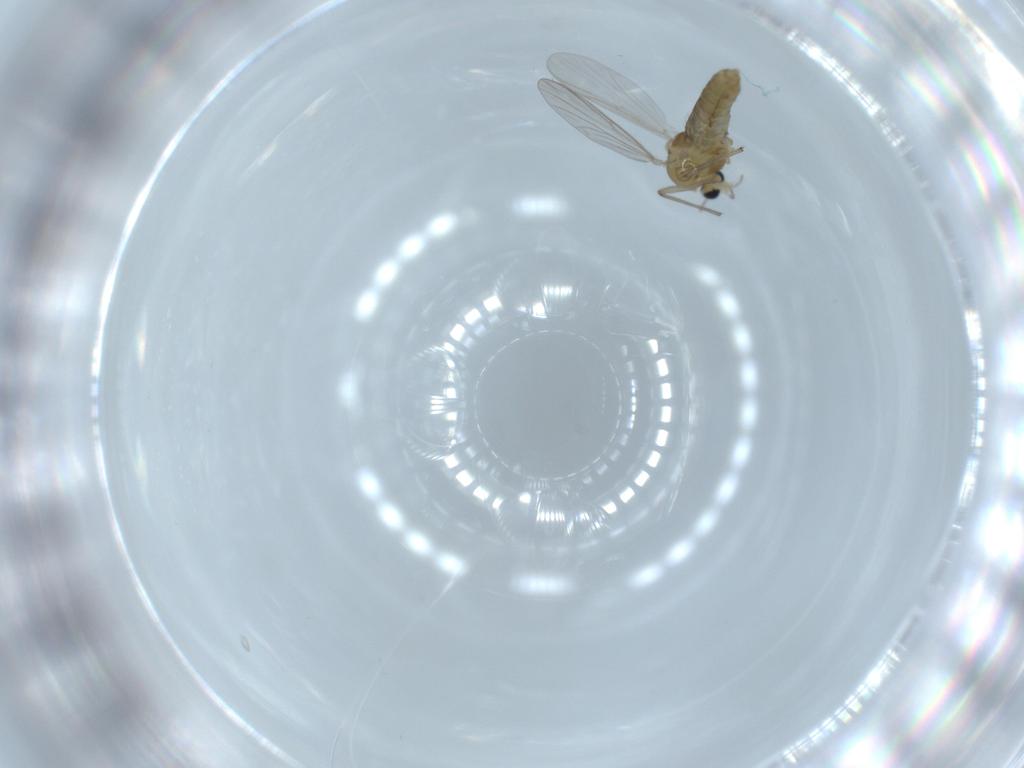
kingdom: Animalia
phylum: Arthropoda
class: Insecta
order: Diptera
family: Chironomidae
